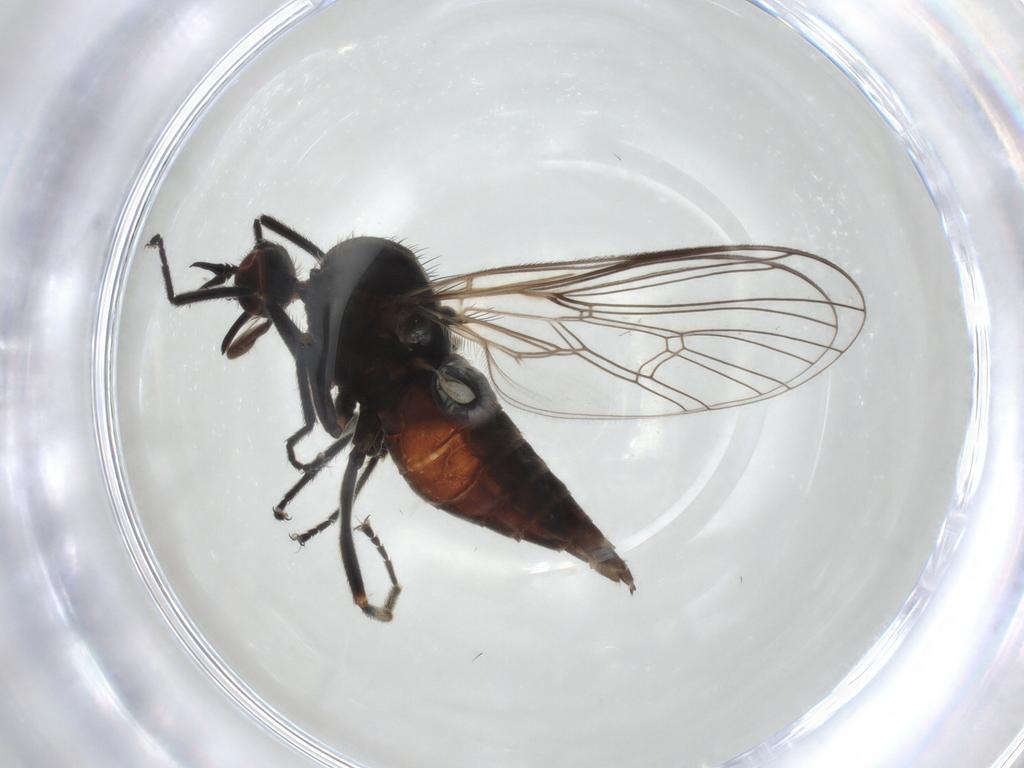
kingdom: Animalia
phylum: Arthropoda
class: Insecta
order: Diptera
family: Empididae
